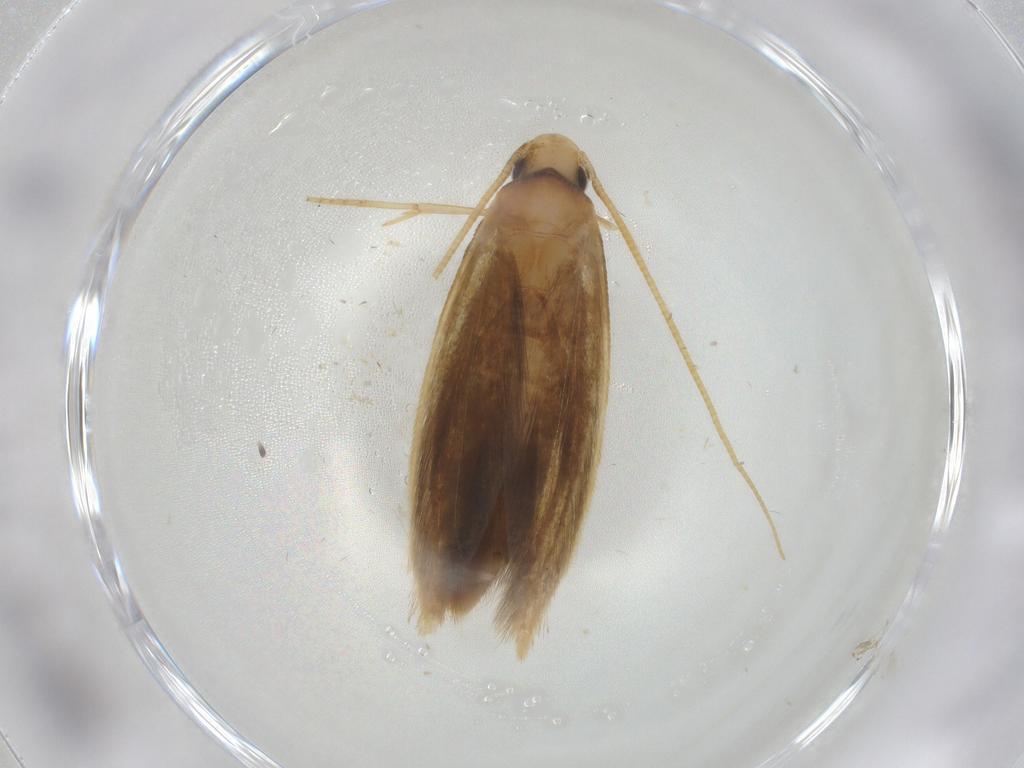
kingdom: Animalia
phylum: Arthropoda
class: Insecta
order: Lepidoptera
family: Tineidae
